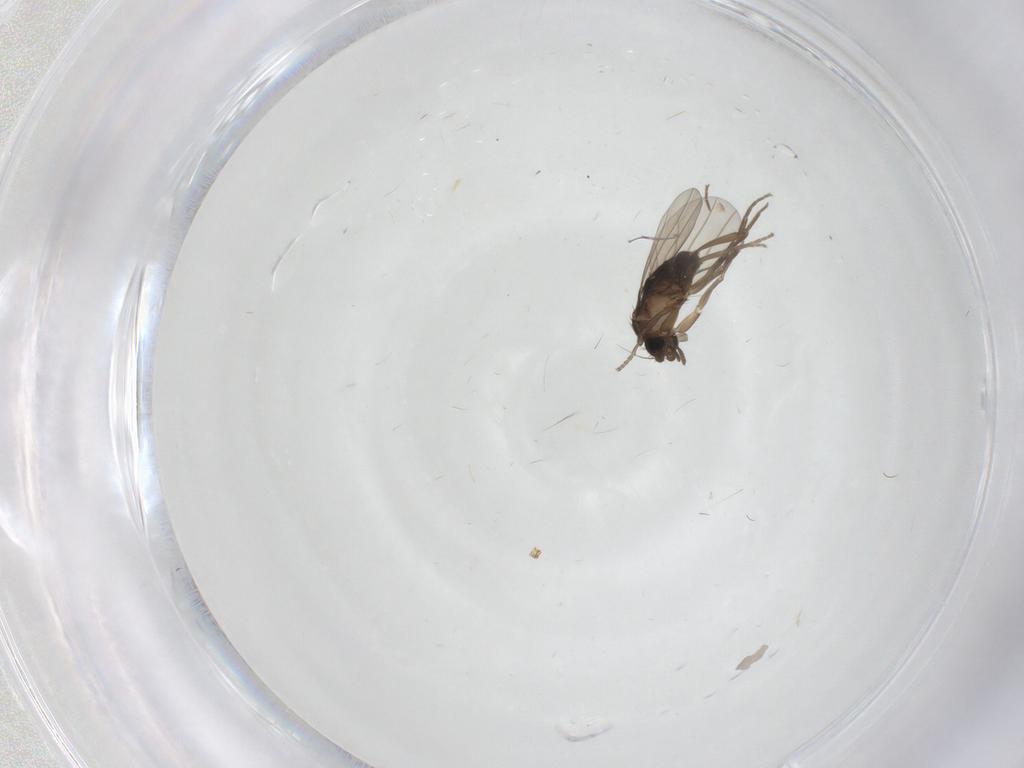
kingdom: Animalia
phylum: Arthropoda
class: Insecta
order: Diptera
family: Cecidomyiidae
